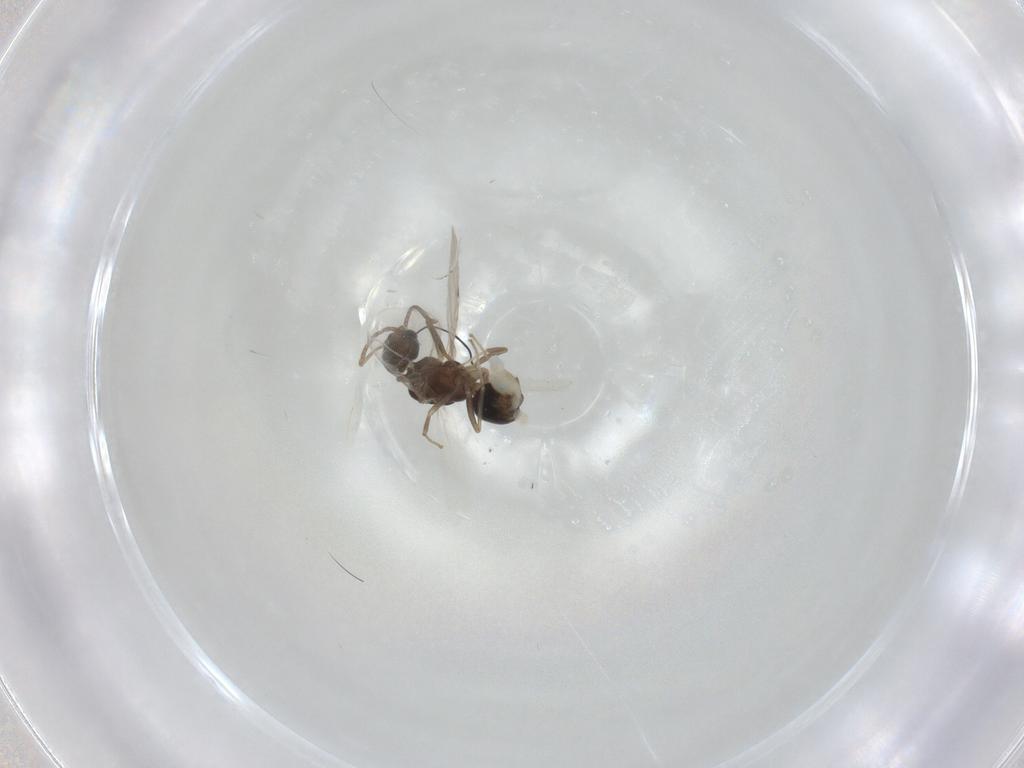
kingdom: Animalia
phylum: Arthropoda
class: Insecta
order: Hymenoptera
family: Formicidae
